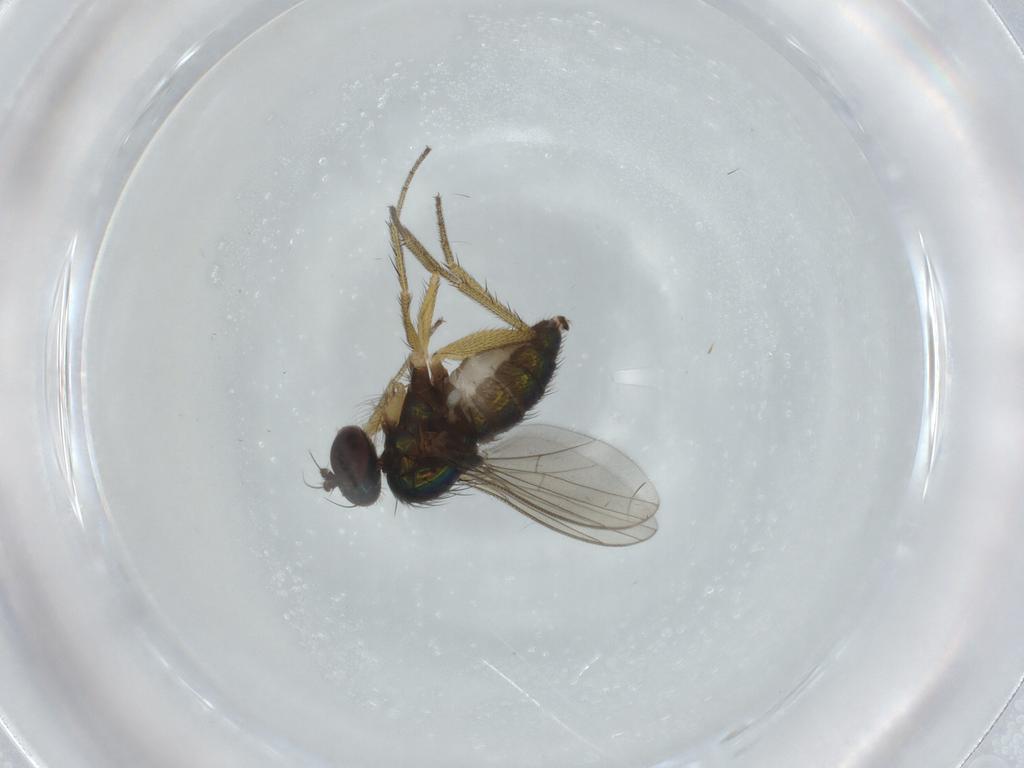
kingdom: Animalia
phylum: Arthropoda
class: Insecta
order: Diptera
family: Dolichopodidae
